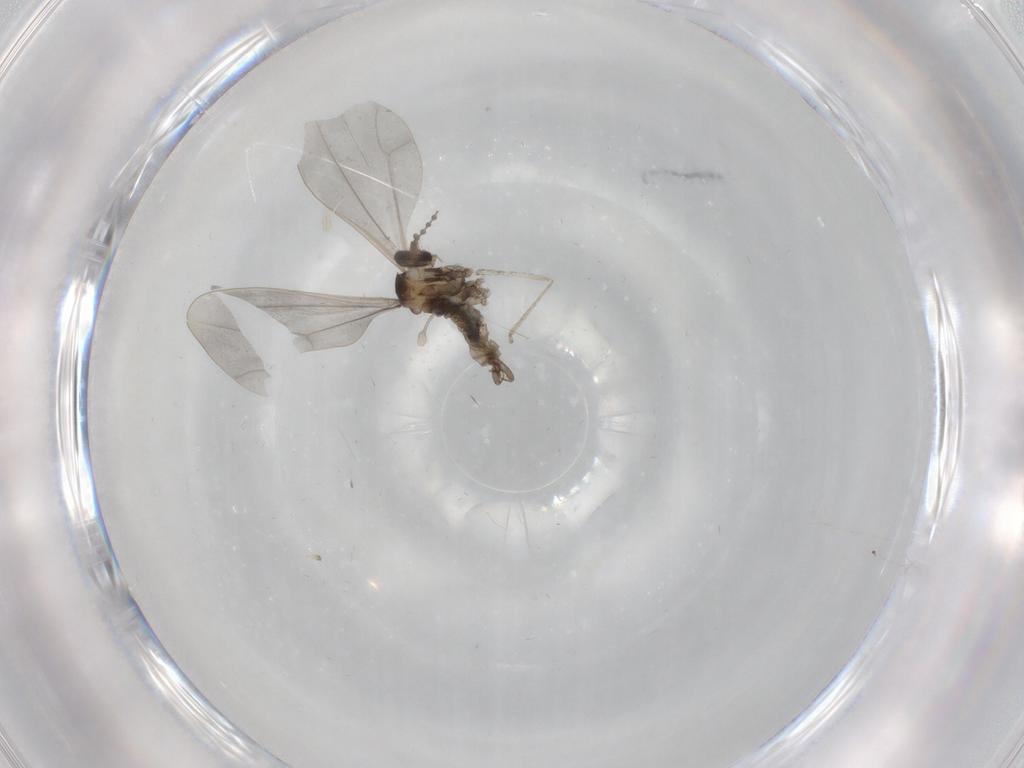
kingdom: Animalia
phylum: Arthropoda
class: Insecta
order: Diptera
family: Cecidomyiidae
